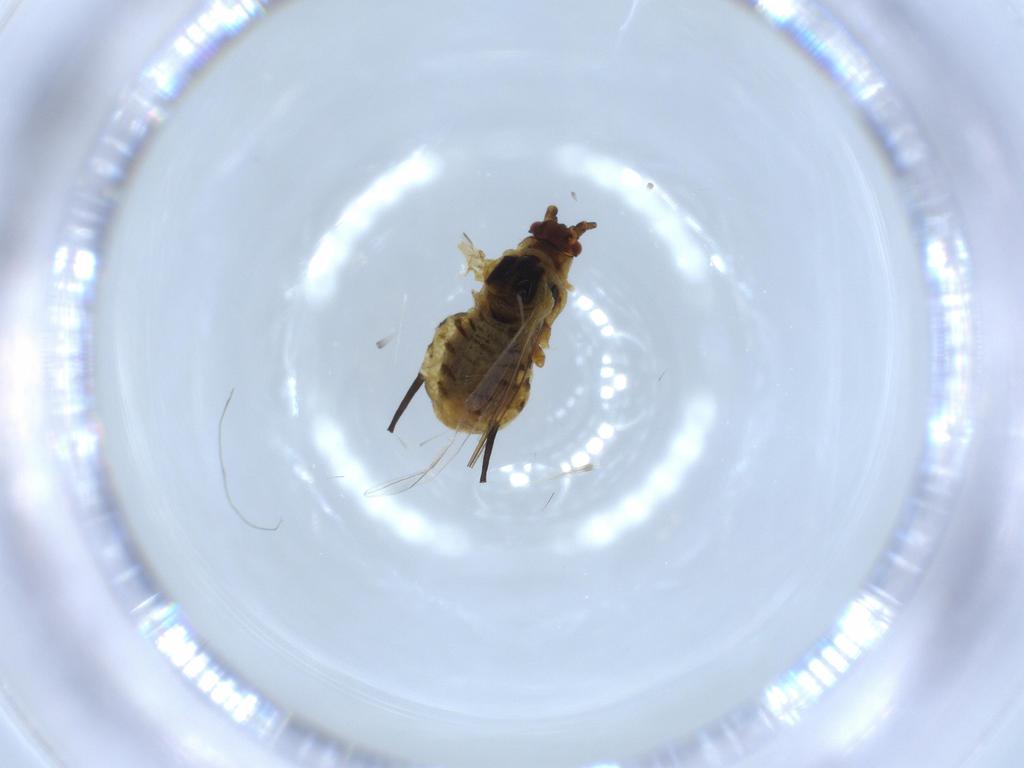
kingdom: Animalia
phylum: Arthropoda
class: Insecta
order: Hemiptera
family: Aphididae
